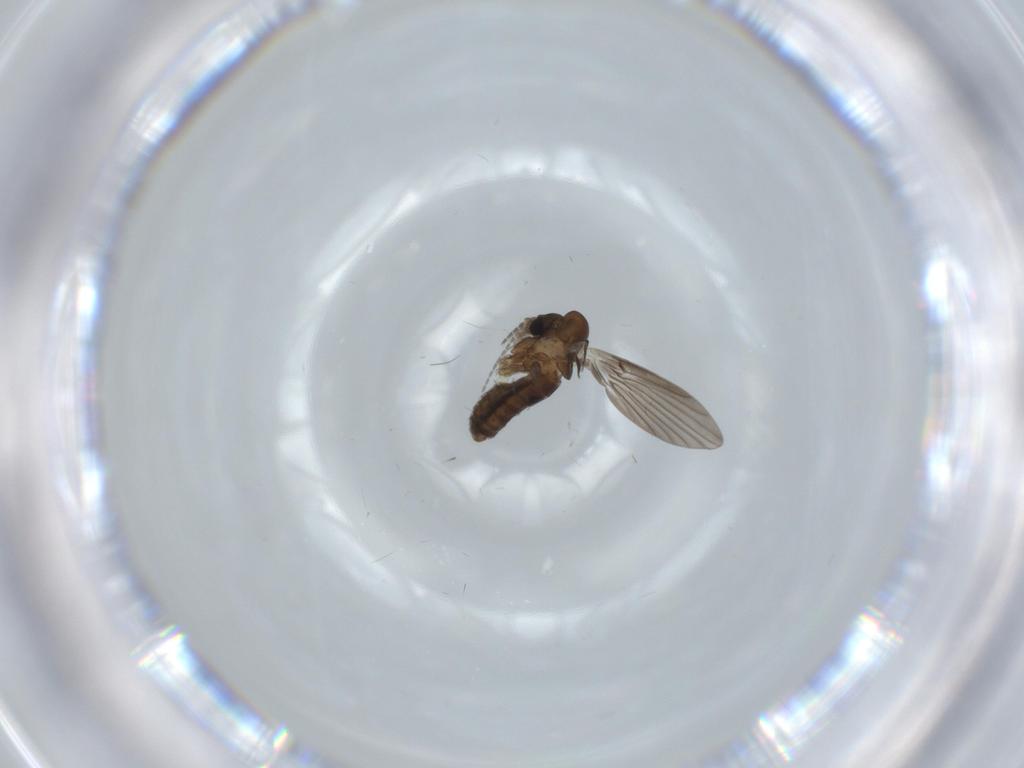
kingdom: Animalia
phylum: Arthropoda
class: Insecta
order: Diptera
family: Psychodidae
